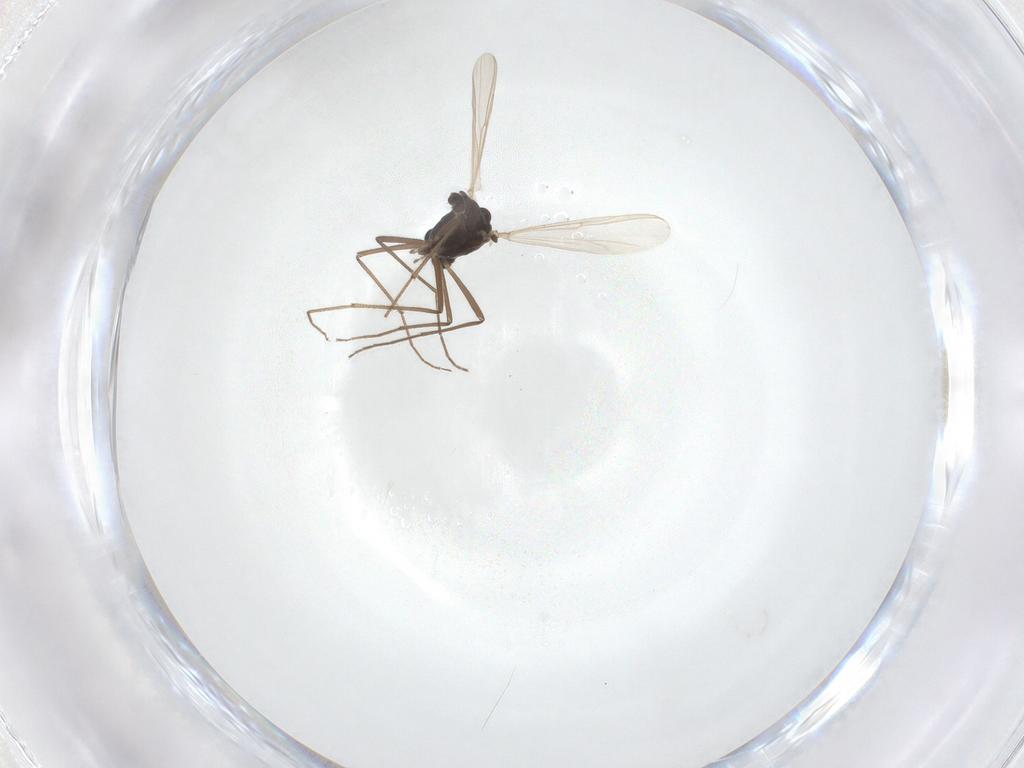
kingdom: Animalia
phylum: Arthropoda
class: Insecta
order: Diptera
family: Chironomidae
